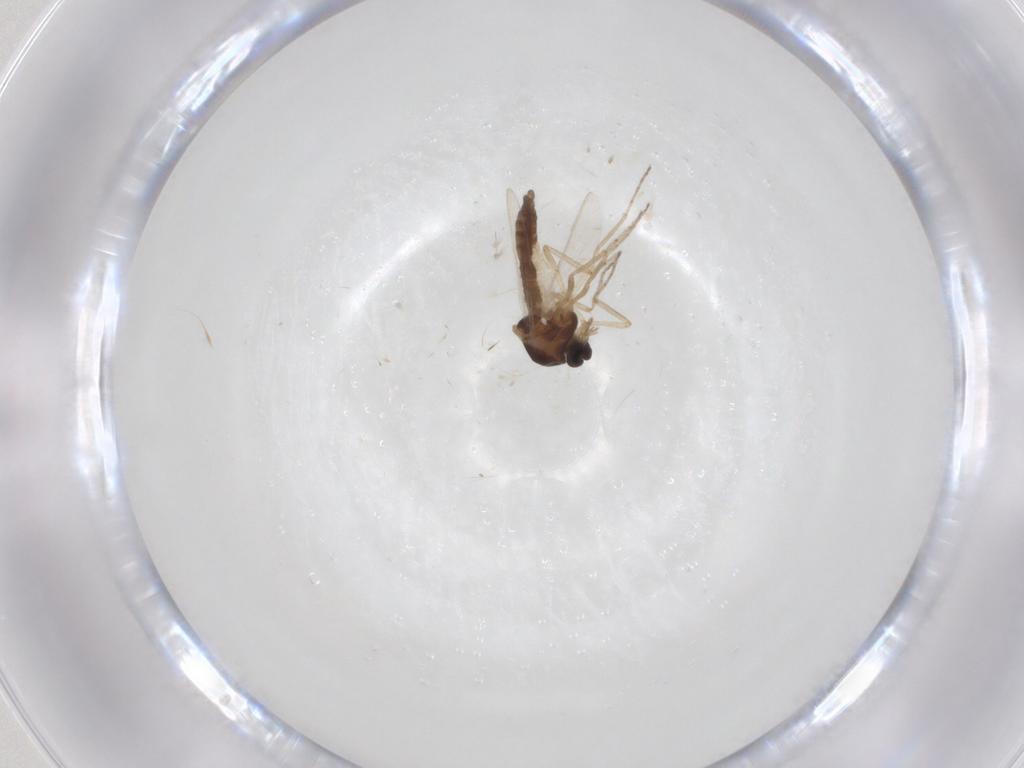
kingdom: Animalia
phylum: Arthropoda
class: Insecta
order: Diptera
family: Ceratopogonidae
